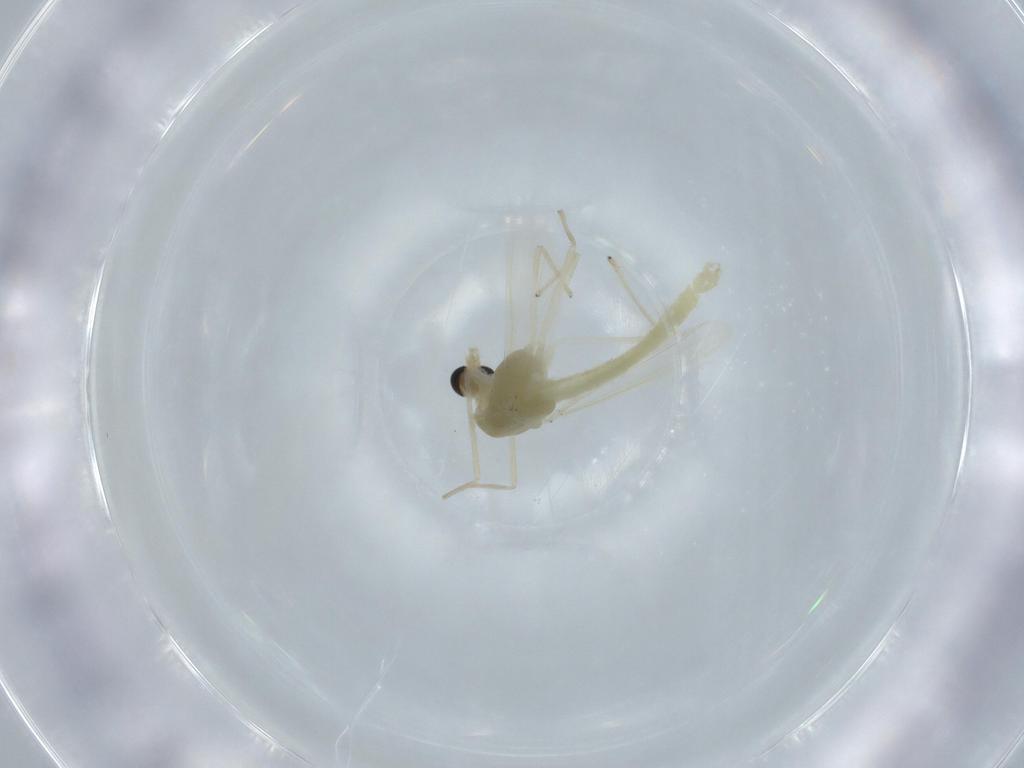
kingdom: Animalia
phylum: Arthropoda
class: Insecta
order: Diptera
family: Chironomidae
